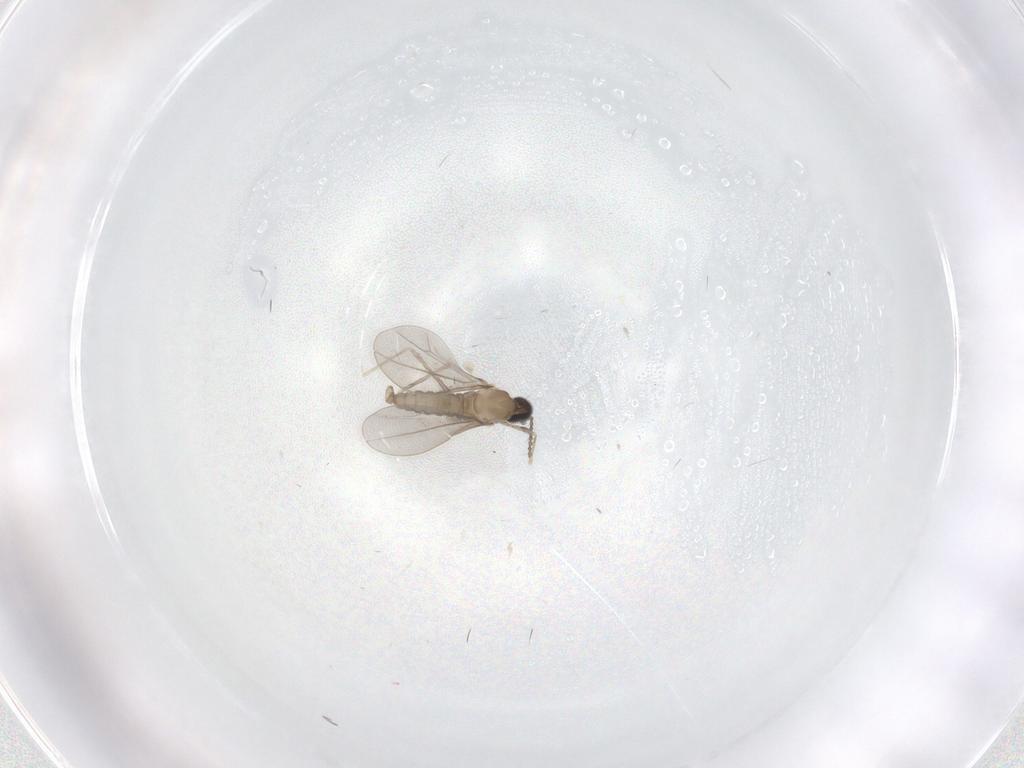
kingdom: Animalia
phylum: Arthropoda
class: Insecta
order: Diptera
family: Cecidomyiidae
